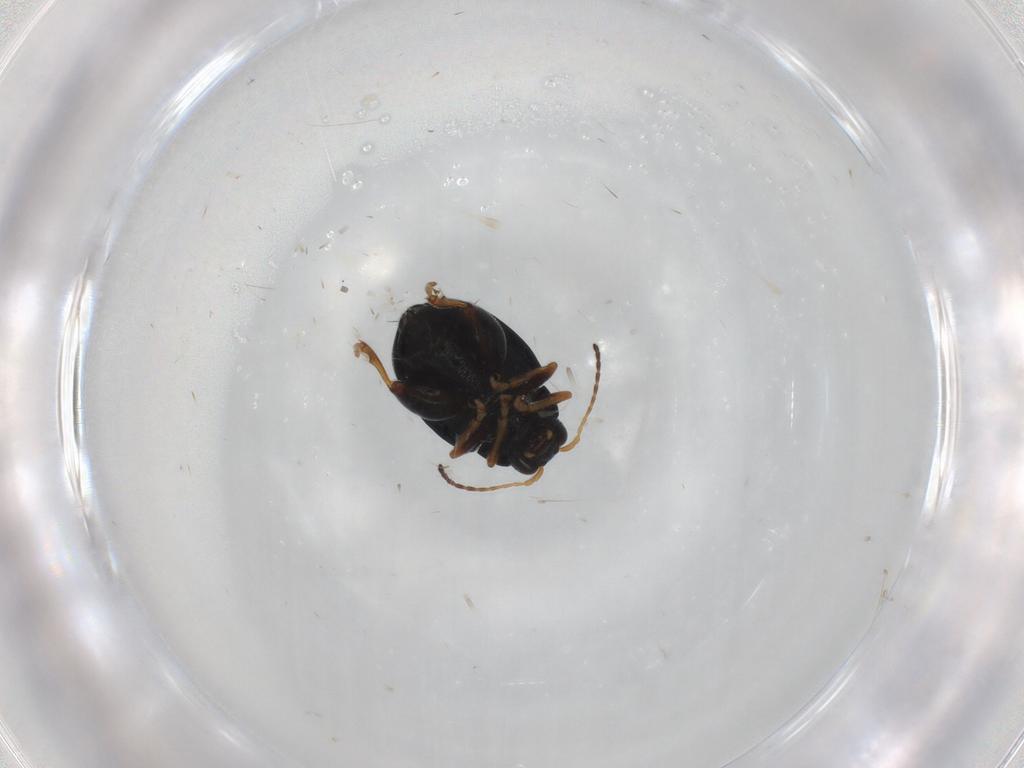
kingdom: Animalia
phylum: Arthropoda
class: Insecta
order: Coleoptera
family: Chrysomelidae
